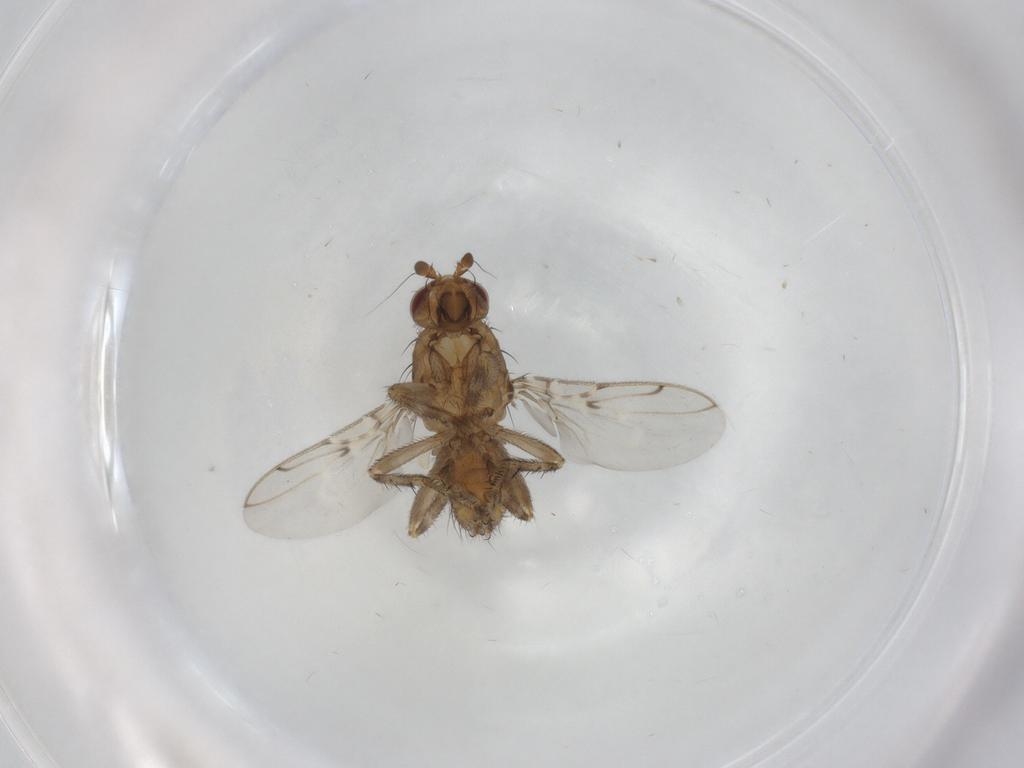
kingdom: Animalia
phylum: Arthropoda
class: Insecta
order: Diptera
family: Sphaeroceridae
